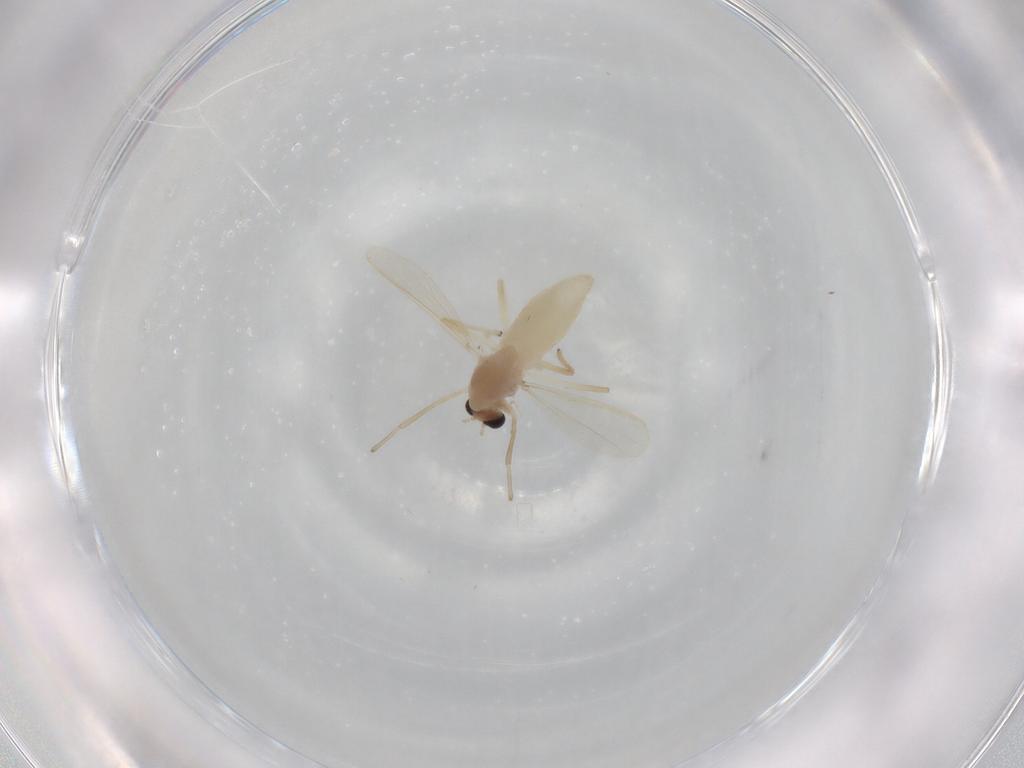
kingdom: Animalia
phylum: Arthropoda
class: Insecta
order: Diptera
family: Chironomidae
